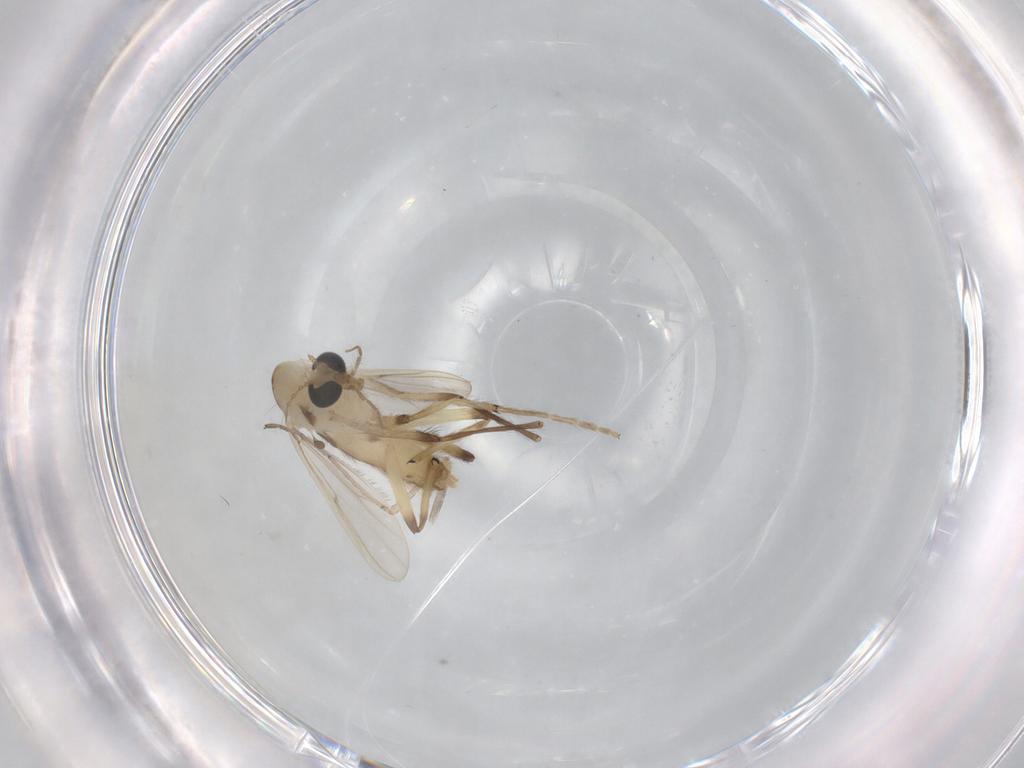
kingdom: Animalia
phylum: Arthropoda
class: Insecta
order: Diptera
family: Chironomidae
